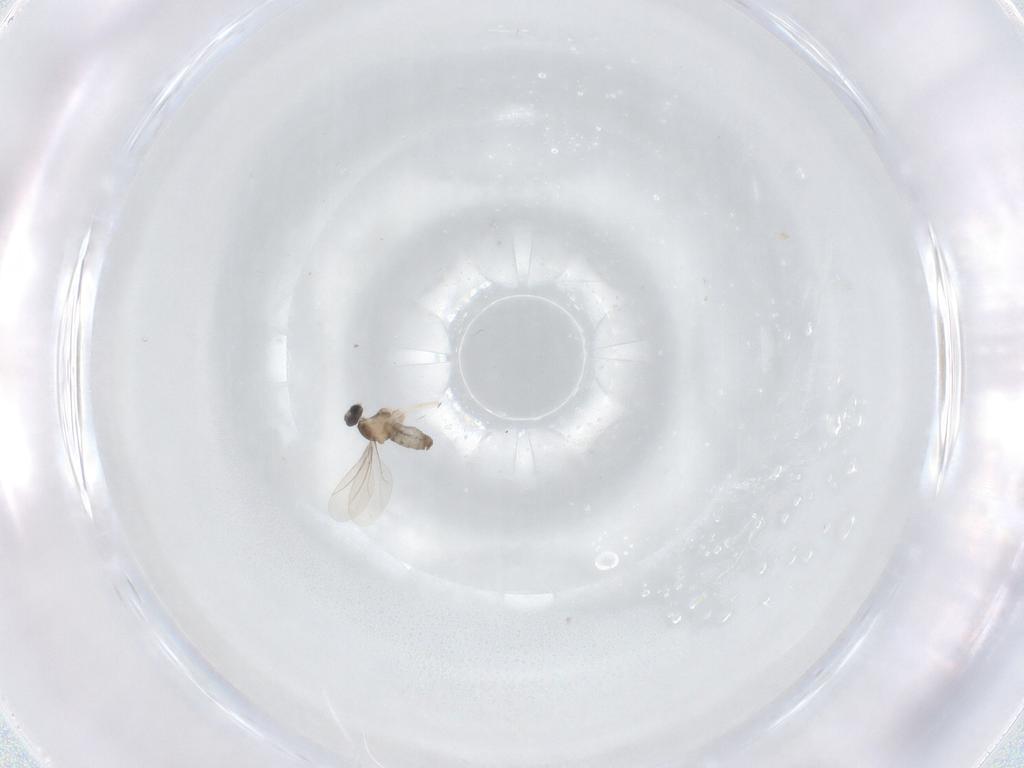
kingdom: Animalia
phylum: Arthropoda
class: Insecta
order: Diptera
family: Cecidomyiidae
